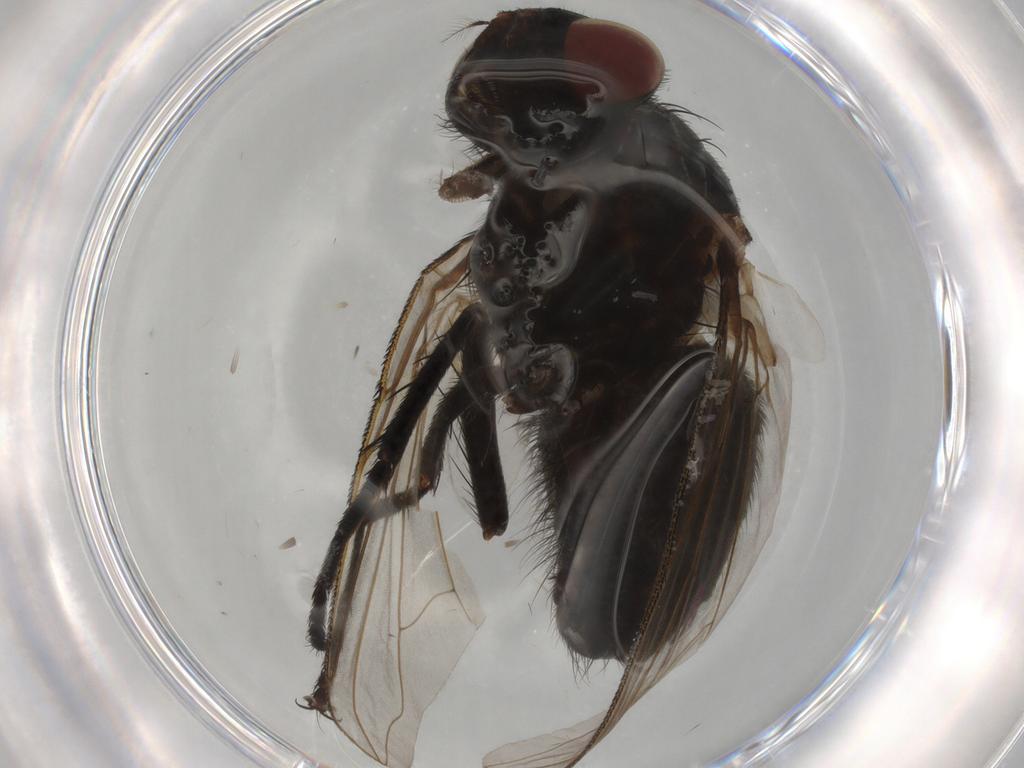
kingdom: Animalia
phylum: Arthropoda
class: Insecta
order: Diptera
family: Calliphoridae
